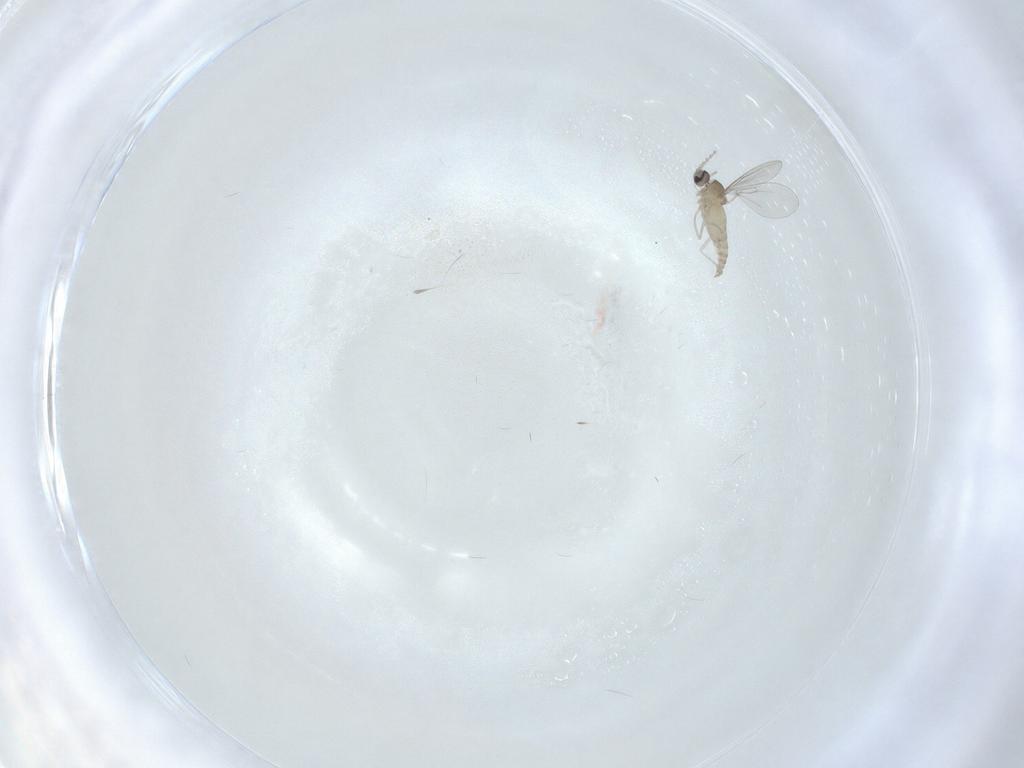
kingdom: Animalia
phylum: Arthropoda
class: Insecta
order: Diptera
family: Cecidomyiidae
